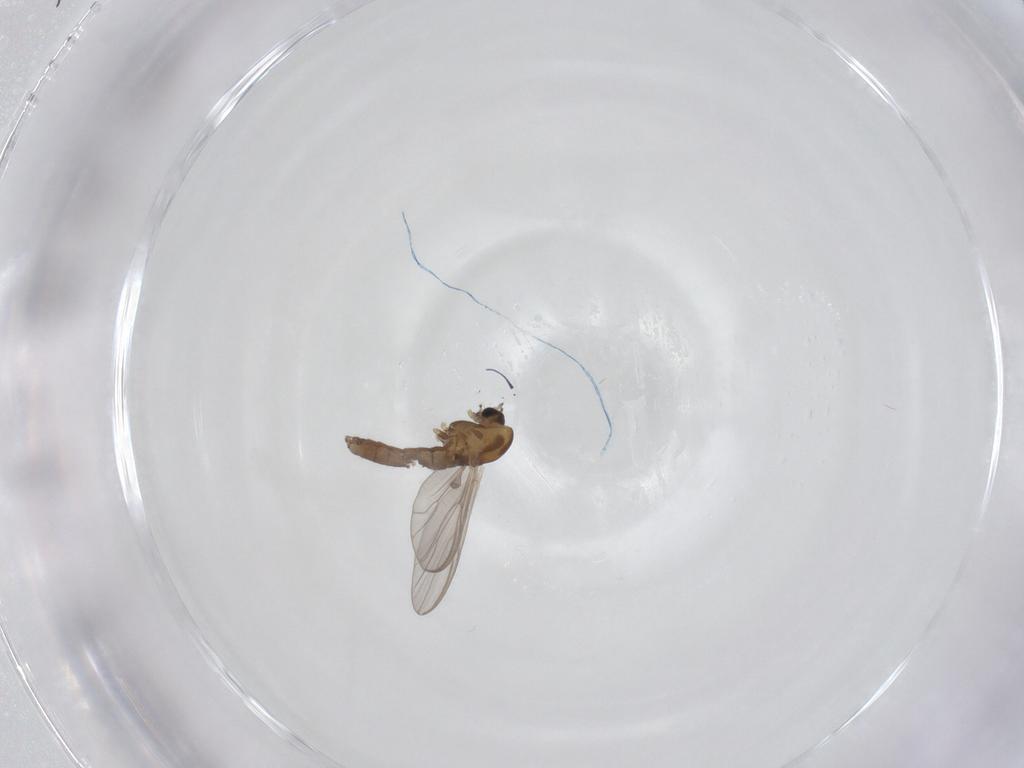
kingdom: Animalia
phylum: Arthropoda
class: Insecta
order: Diptera
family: Chironomidae
